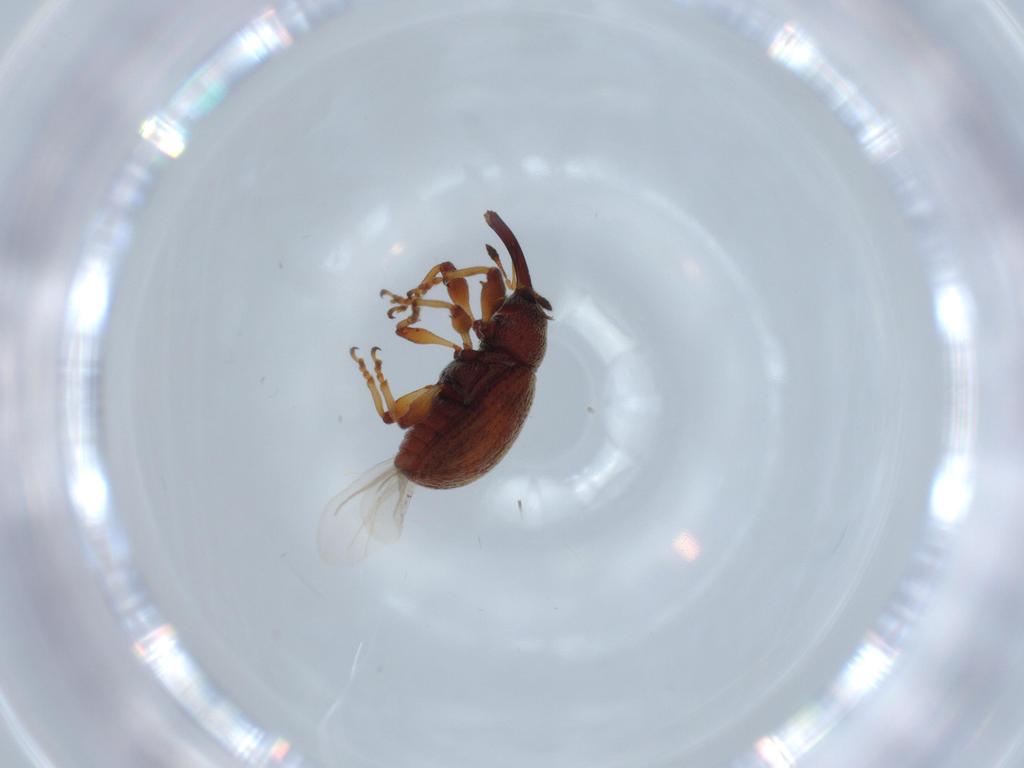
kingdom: Animalia
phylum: Arthropoda
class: Insecta
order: Coleoptera
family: Curculionidae
